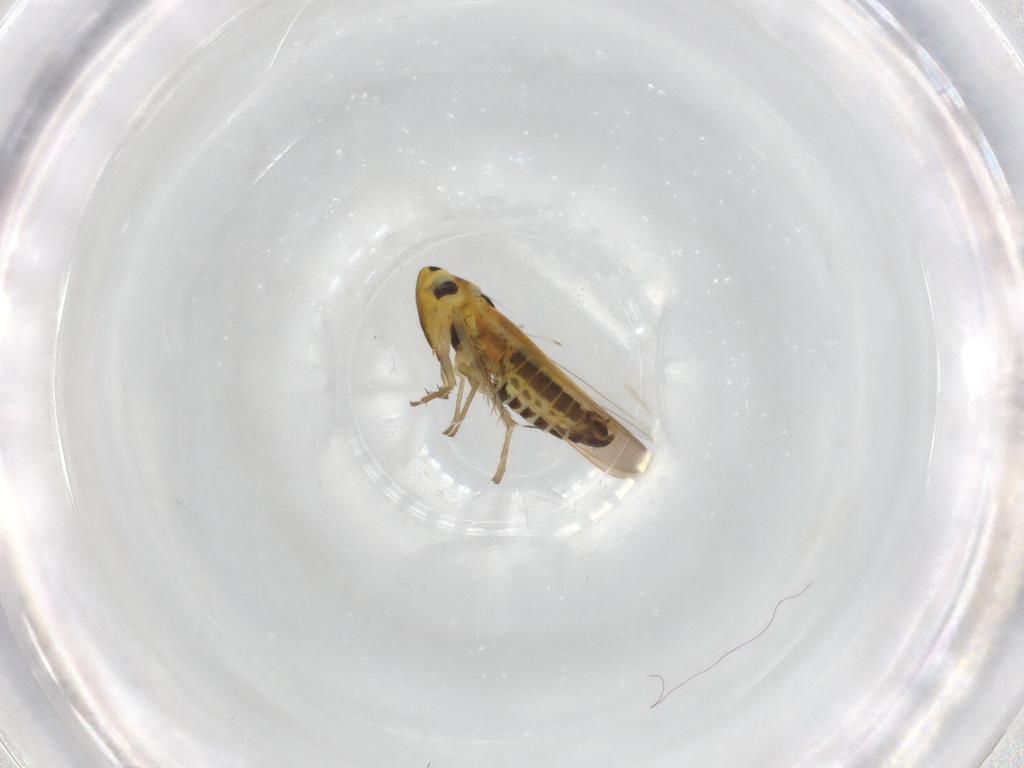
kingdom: Animalia
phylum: Arthropoda
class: Insecta
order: Hemiptera
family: Cicadellidae
